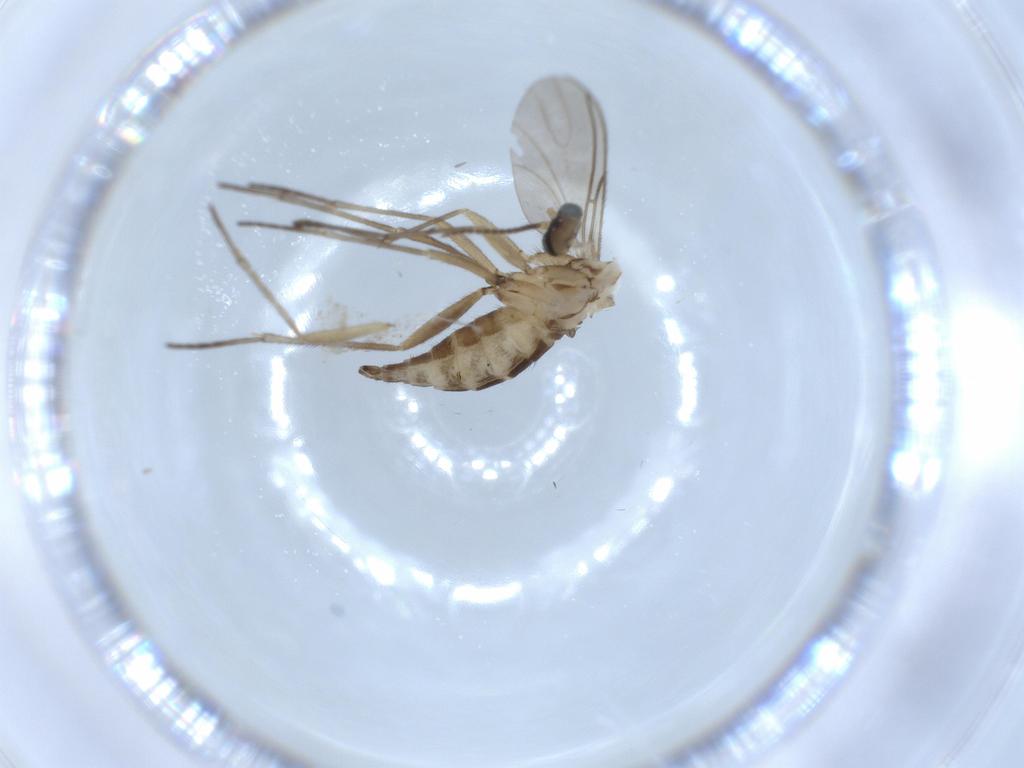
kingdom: Animalia
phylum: Arthropoda
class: Insecta
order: Diptera
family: Sciaridae
